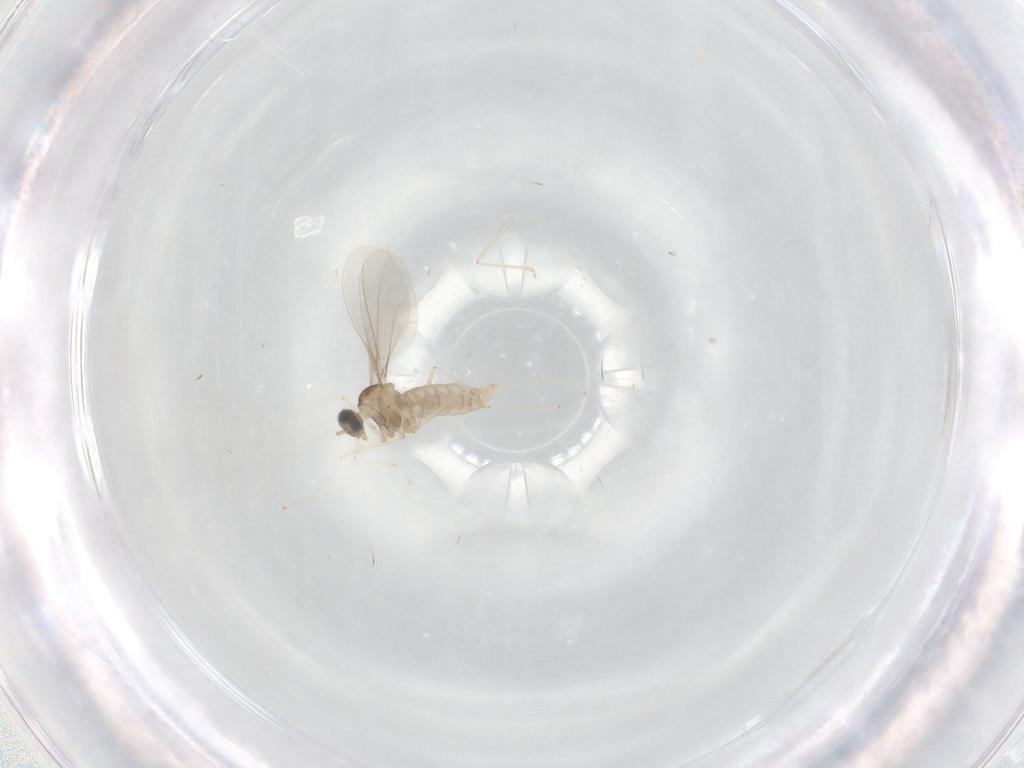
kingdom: Animalia
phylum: Arthropoda
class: Insecta
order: Diptera
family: Cecidomyiidae
